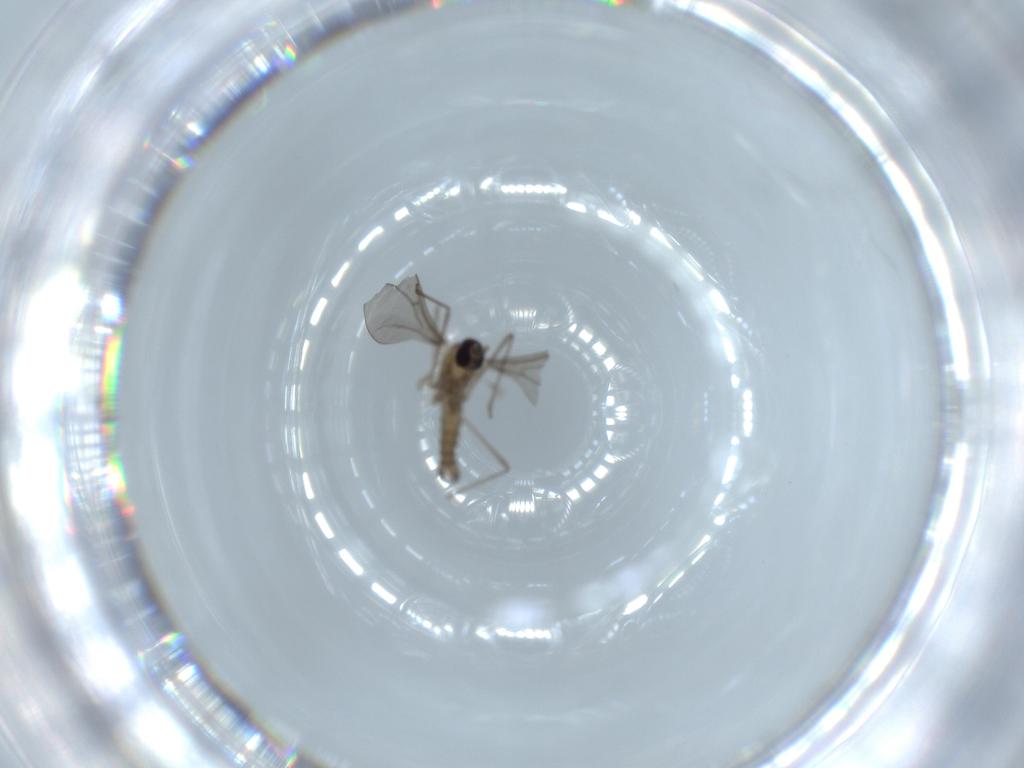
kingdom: Animalia
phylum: Arthropoda
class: Insecta
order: Diptera
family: Cecidomyiidae
